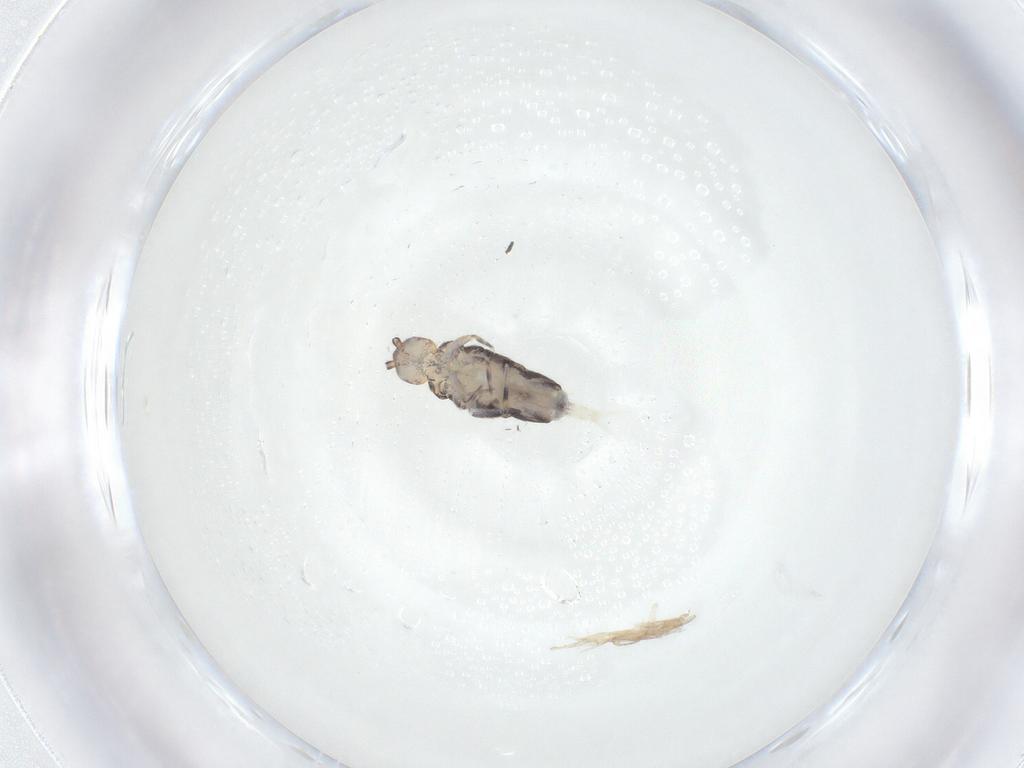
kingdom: Animalia
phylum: Arthropoda
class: Collembola
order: Entomobryomorpha
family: Entomobryidae
